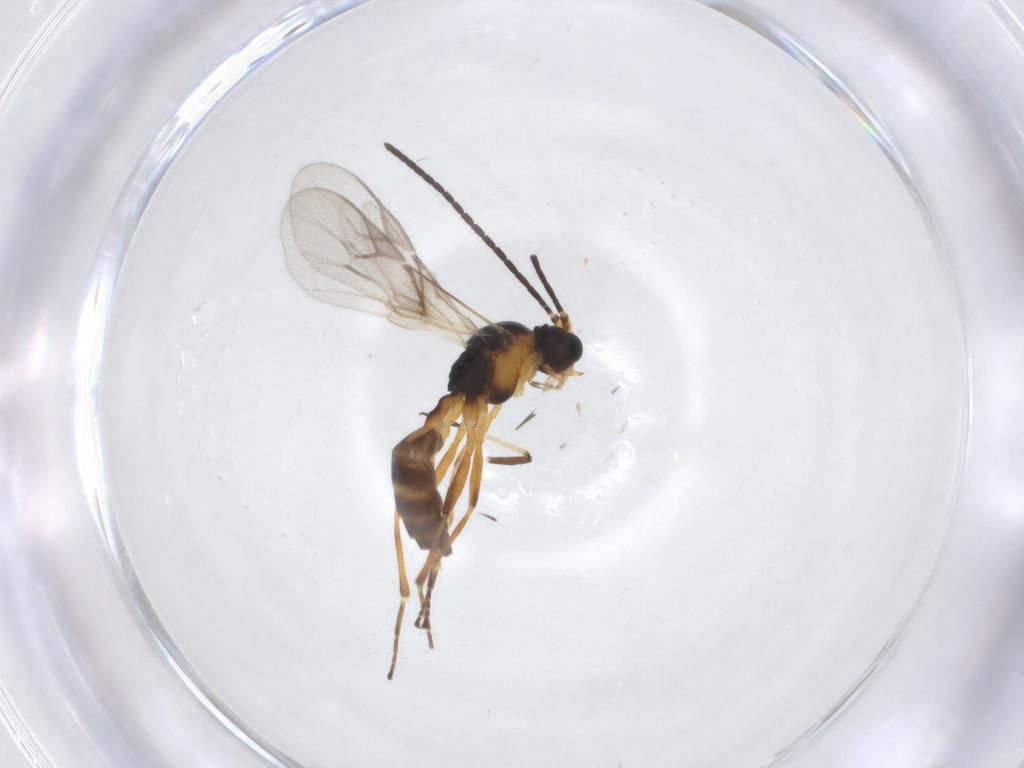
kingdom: Animalia
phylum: Arthropoda
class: Insecta
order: Hymenoptera
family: Braconidae
